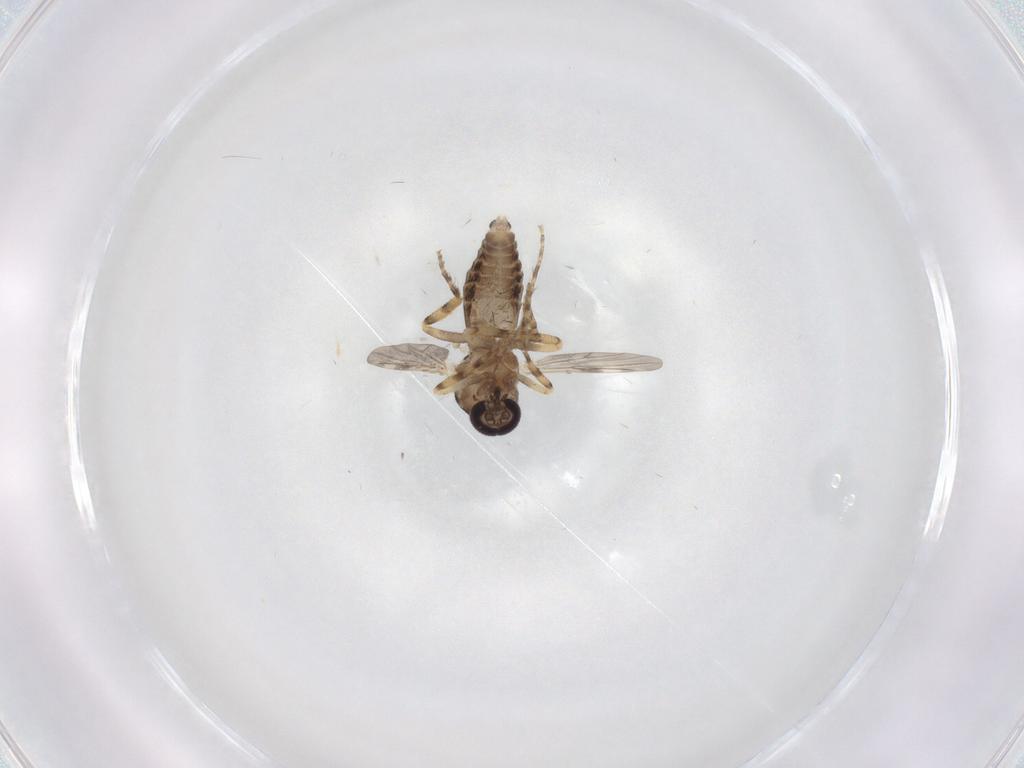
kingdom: Animalia
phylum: Arthropoda
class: Insecta
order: Diptera
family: Ceratopogonidae
